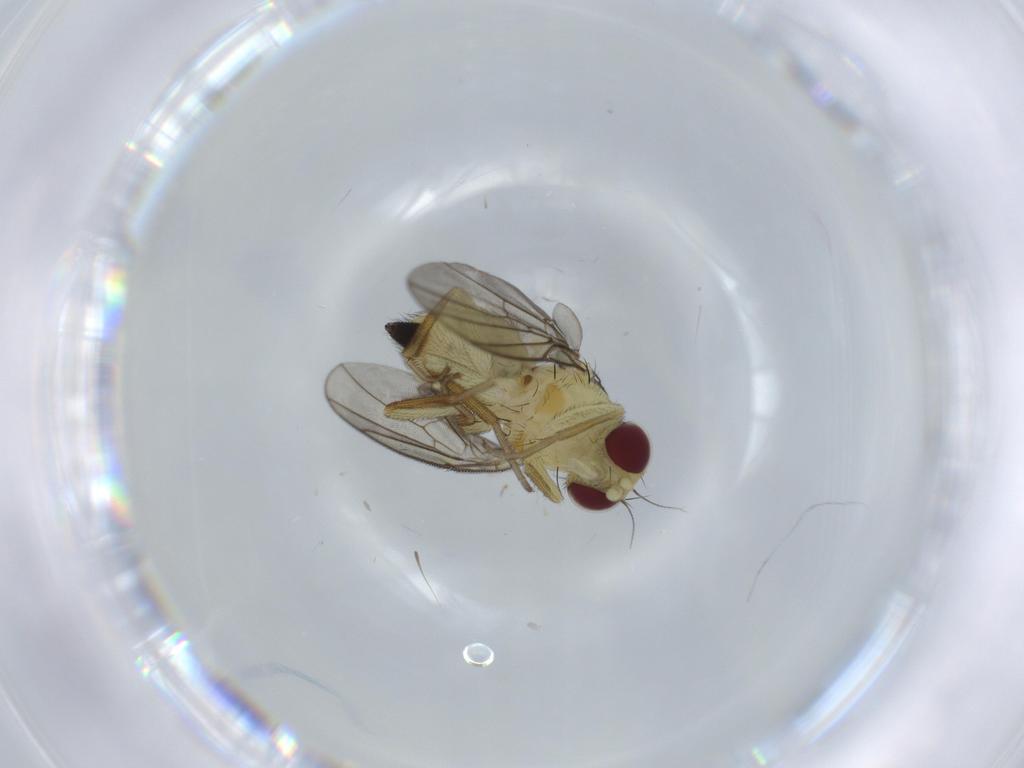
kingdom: Animalia
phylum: Arthropoda
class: Insecta
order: Diptera
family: Agromyzidae
